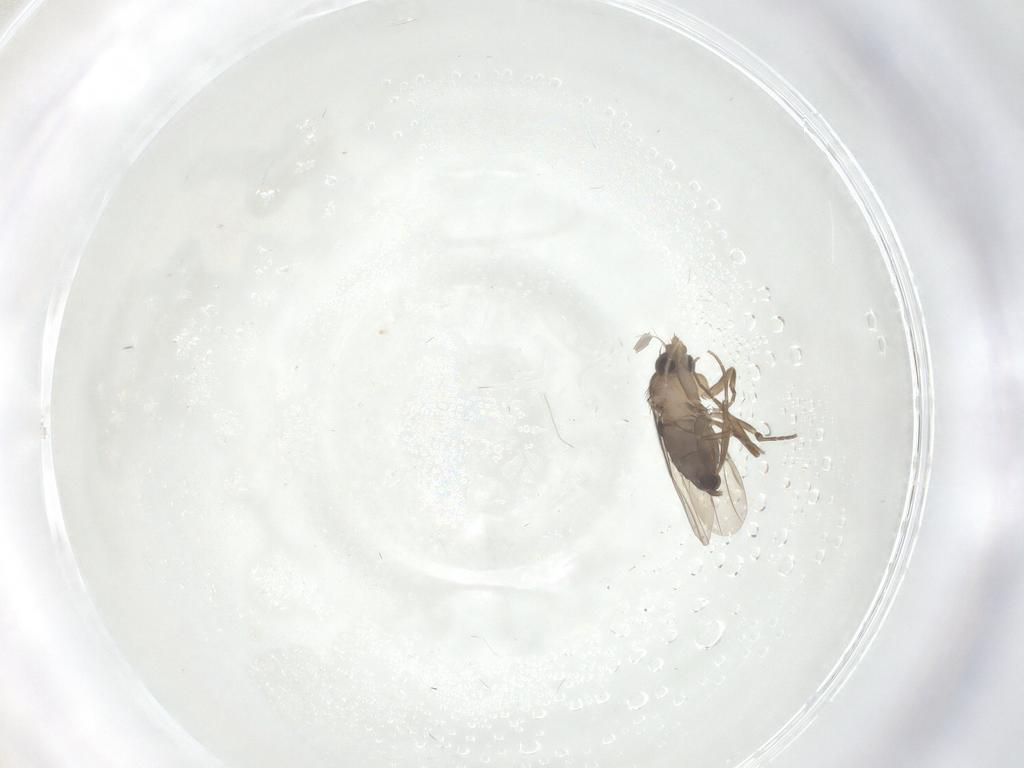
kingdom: Animalia
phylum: Arthropoda
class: Insecta
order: Diptera
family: Phoridae
